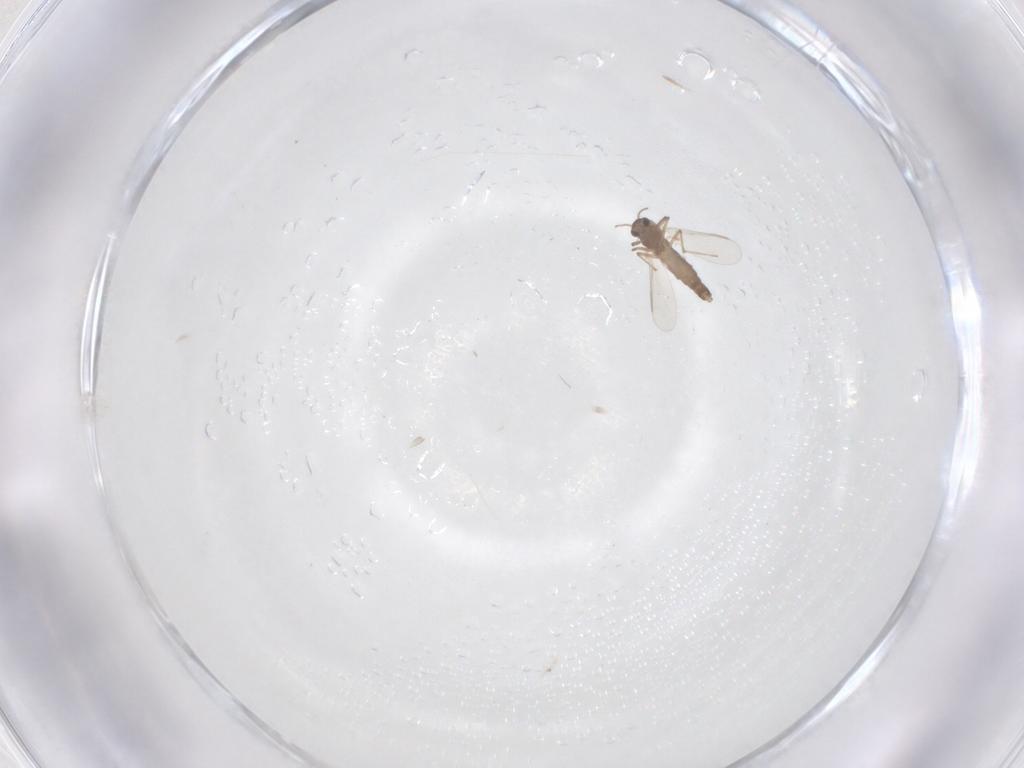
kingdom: Animalia
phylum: Arthropoda
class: Insecta
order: Diptera
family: Chironomidae
